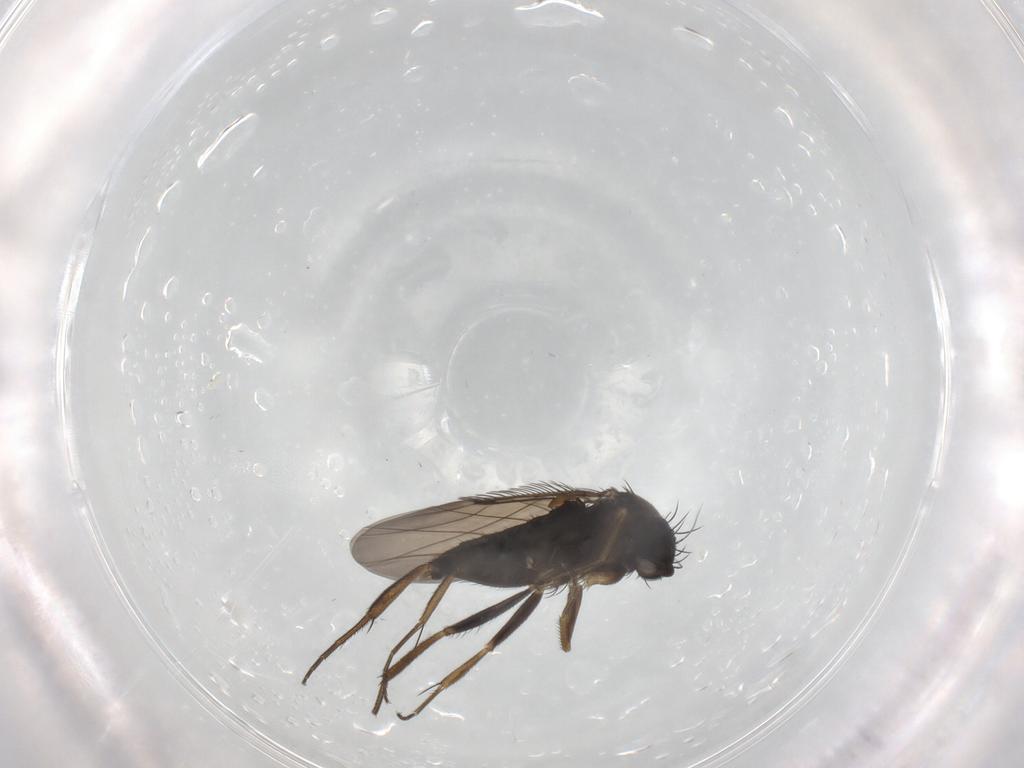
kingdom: Animalia
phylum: Arthropoda
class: Insecta
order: Diptera
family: Phoridae
